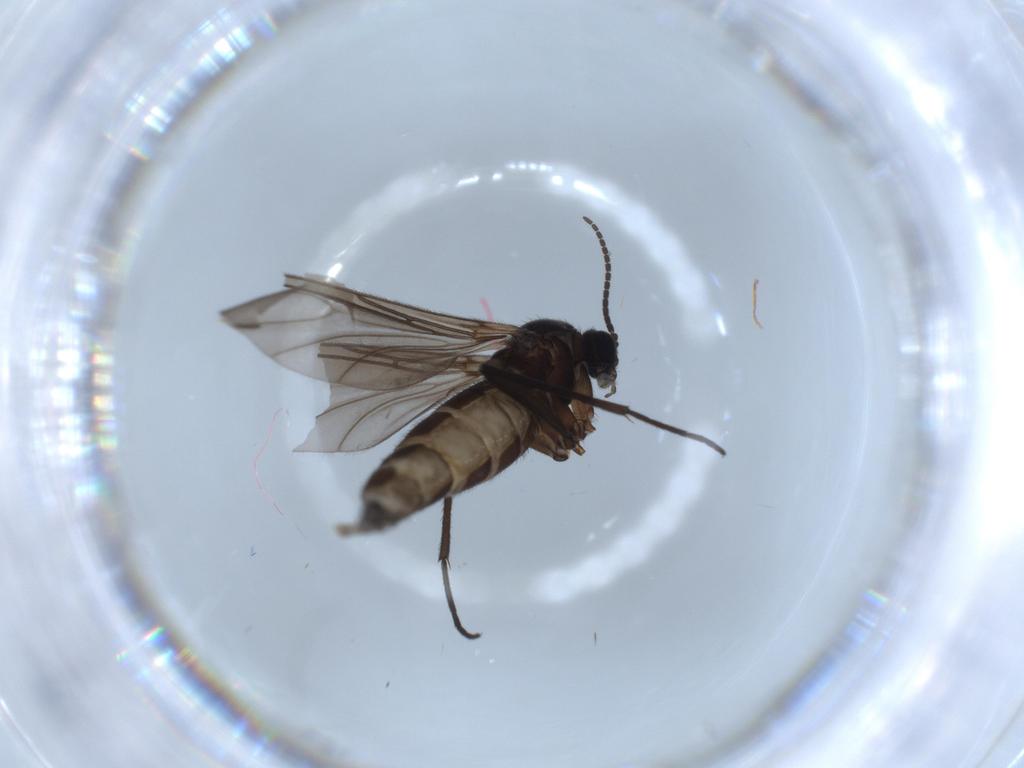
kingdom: Animalia
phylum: Arthropoda
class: Insecta
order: Diptera
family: Sciaridae
